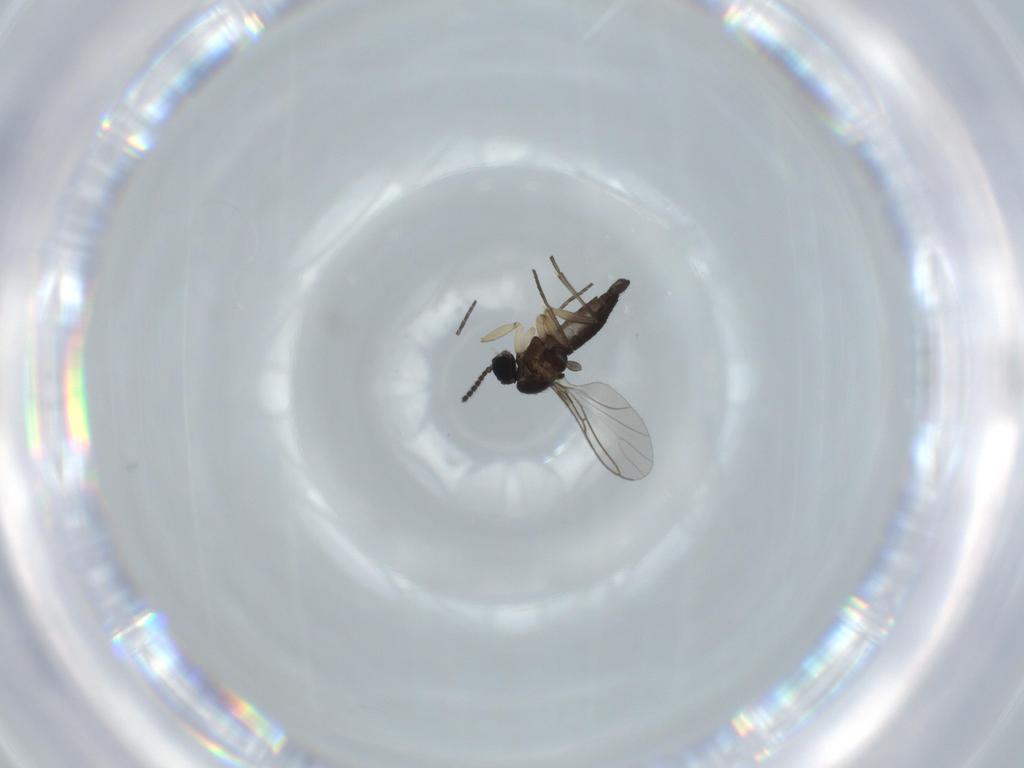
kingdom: Animalia
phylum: Arthropoda
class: Insecta
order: Diptera
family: Sciaridae
